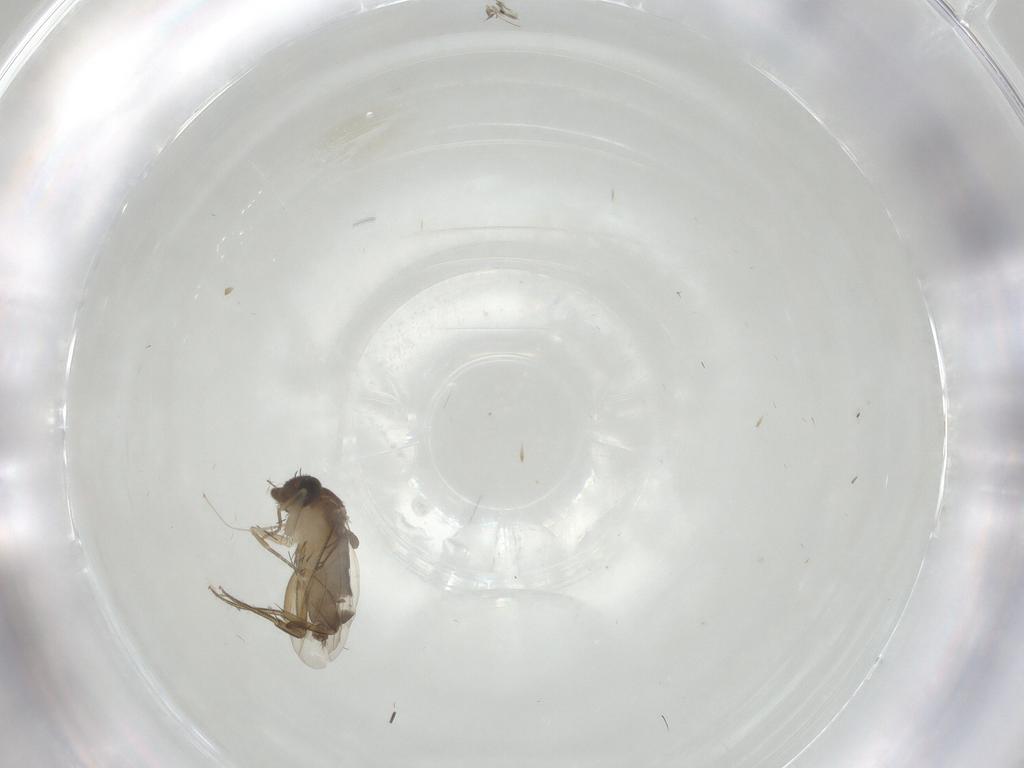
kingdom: Animalia
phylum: Arthropoda
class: Insecta
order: Diptera
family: Phoridae
